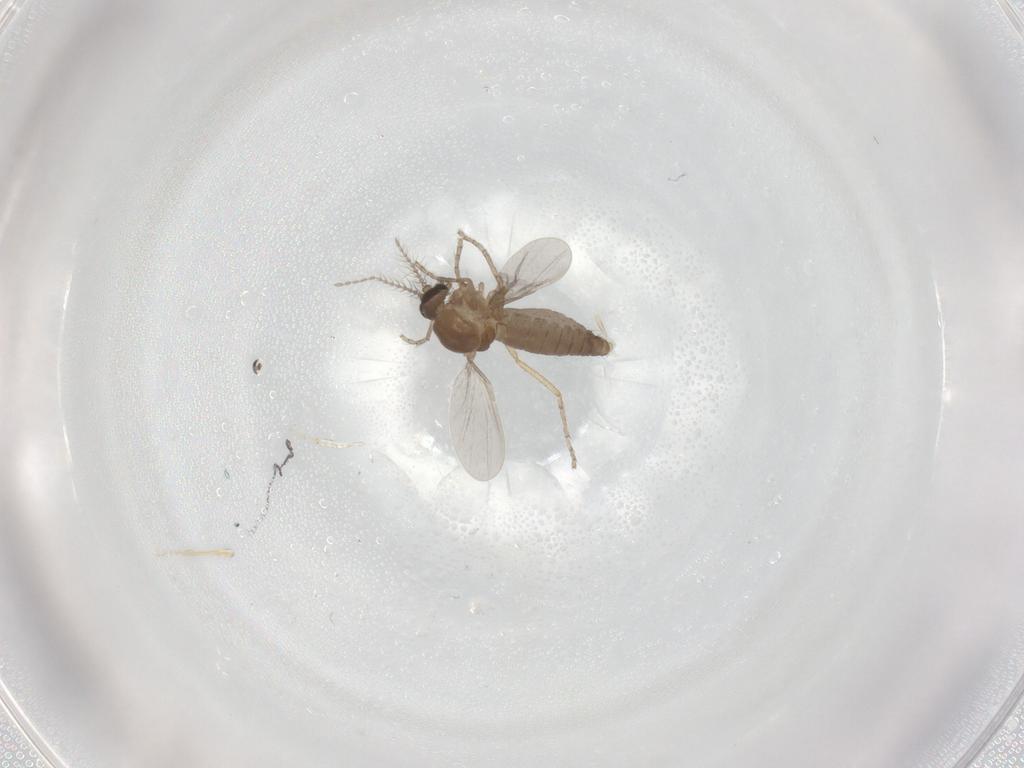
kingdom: Animalia
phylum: Arthropoda
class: Insecta
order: Diptera
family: Ceratopogonidae
